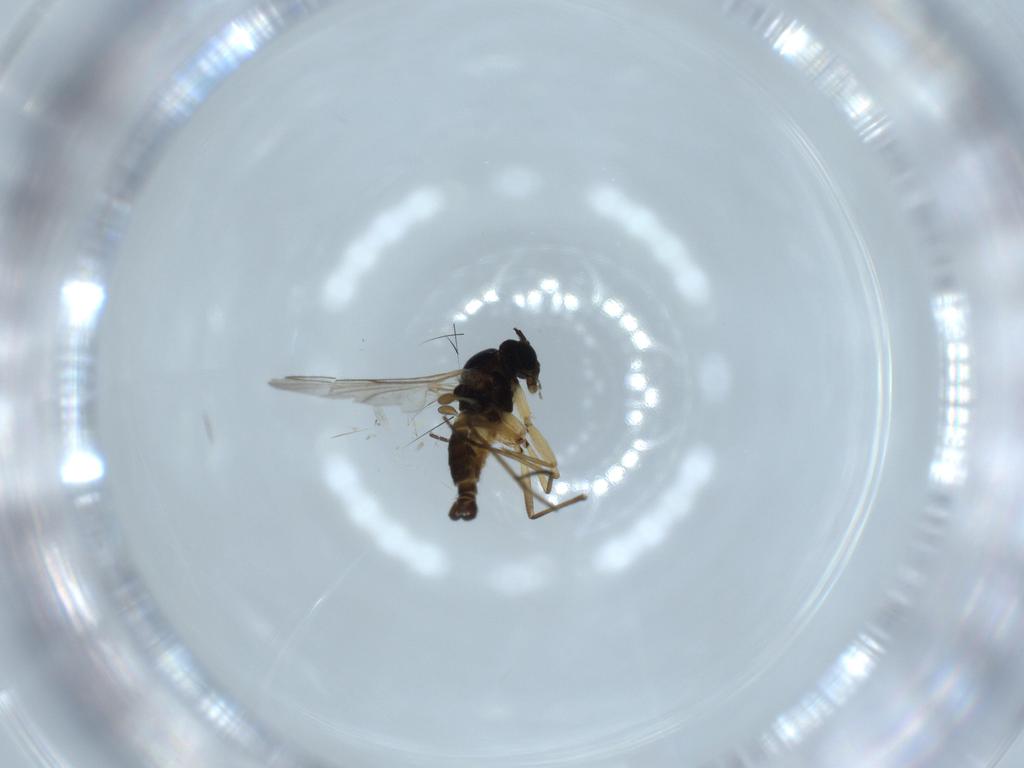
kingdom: Animalia
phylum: Arthropoda
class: Insecta
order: Diptera
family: Sciaridae
